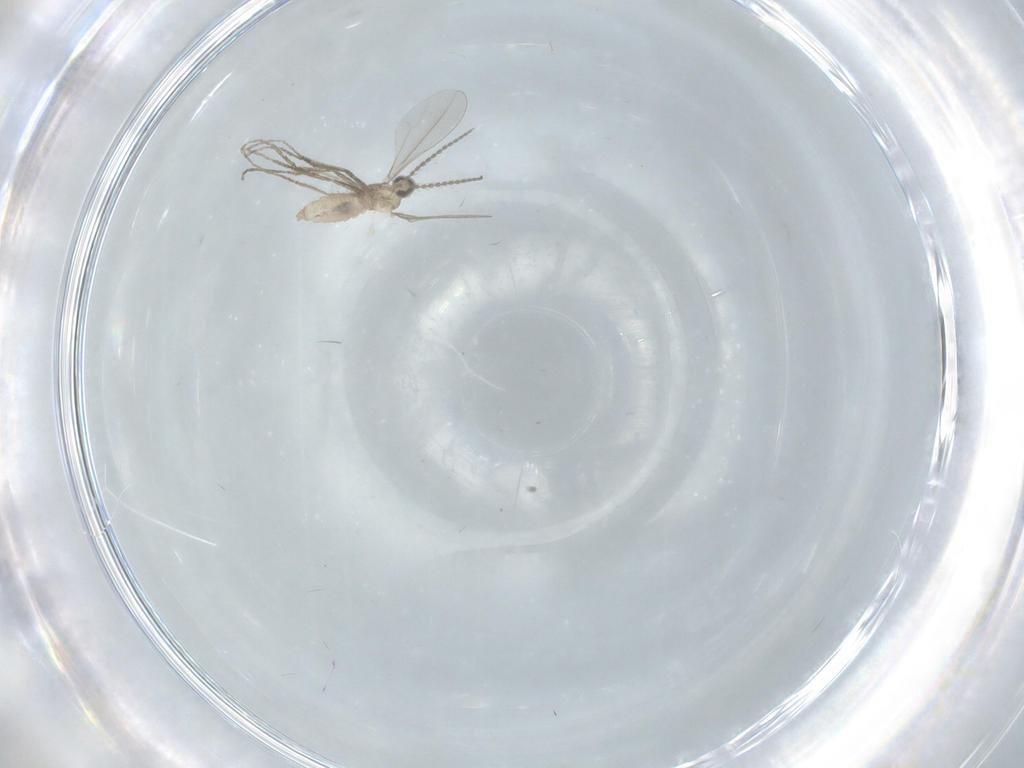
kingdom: Animalia
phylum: Arthropoda
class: Insecta
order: Diptera
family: Cecidomyiidae
